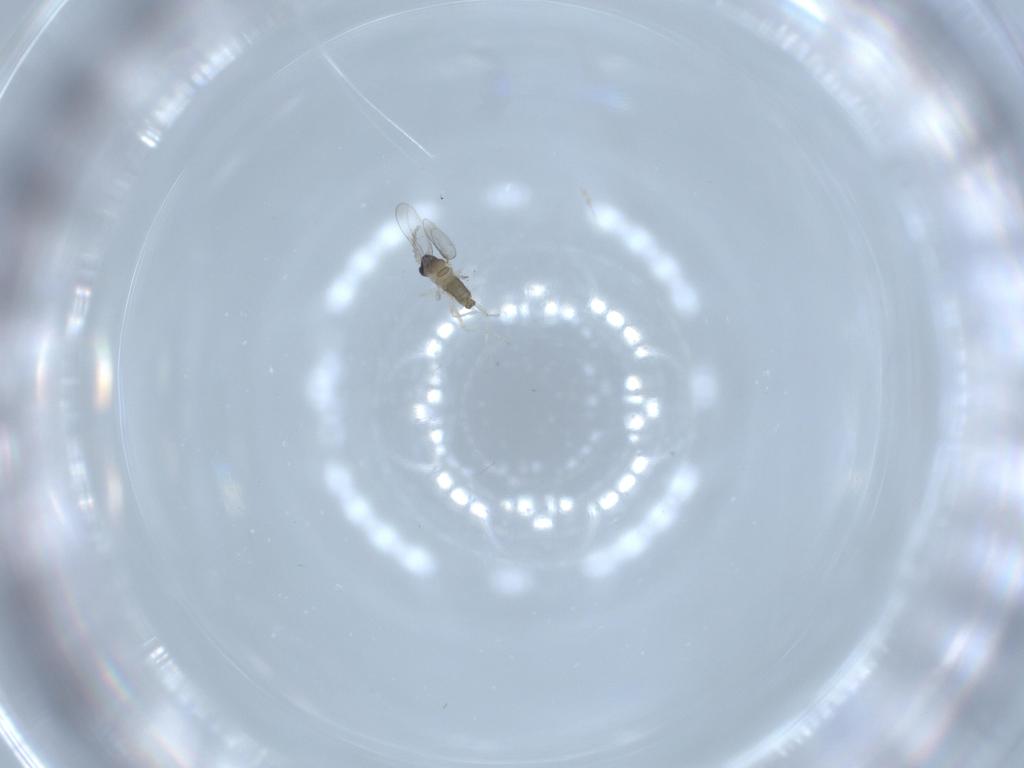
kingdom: Animalia
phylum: Arthropoda
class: Insecta
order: Diptera
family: Cecidomyiidae
